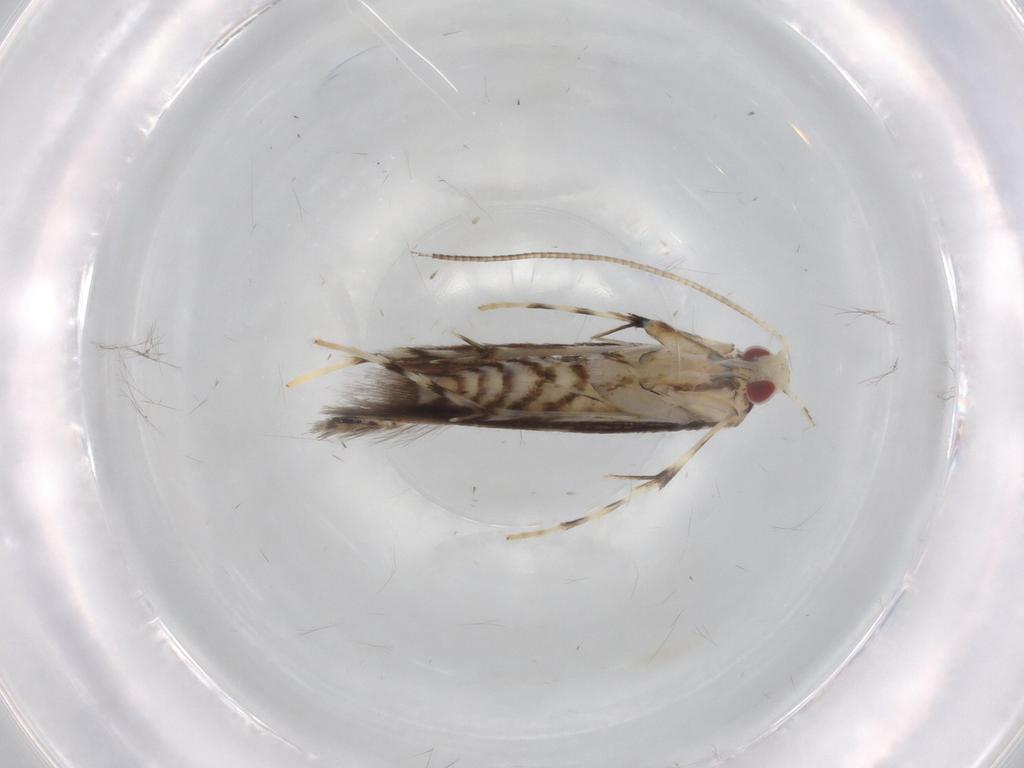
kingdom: Animalia
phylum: Arthropoda
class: Insecta
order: Lepidoptera
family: Gracillariidae
